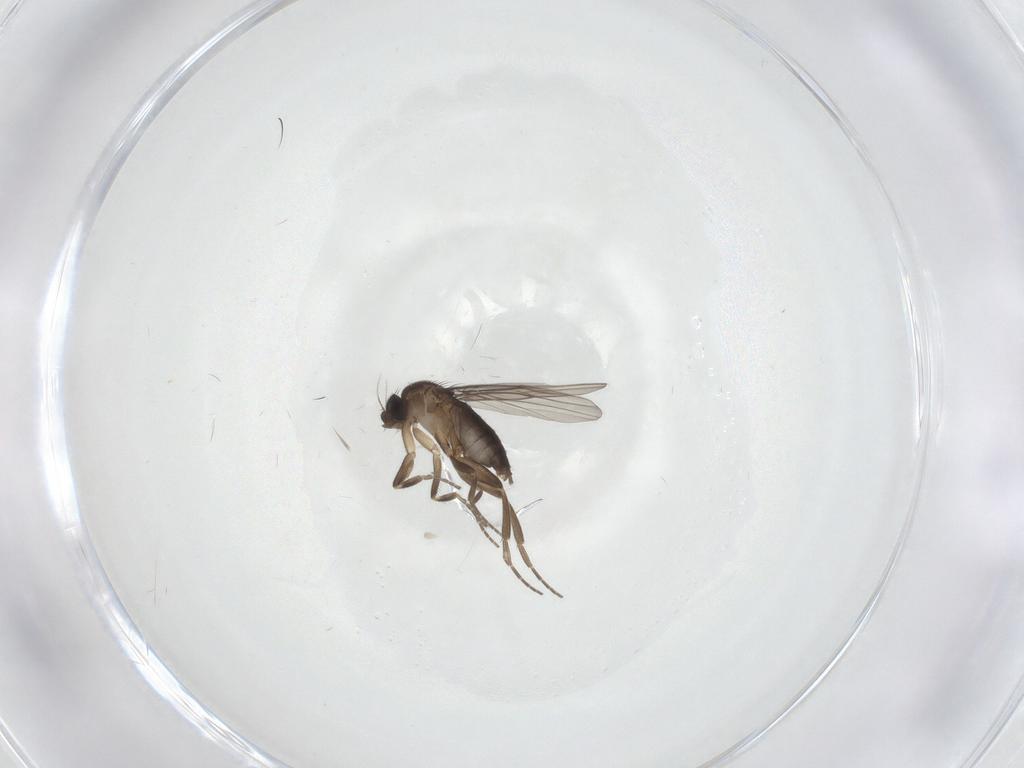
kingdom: Animalia
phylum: Arthropoda
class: Insecta
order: Diptera
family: Phoridae
